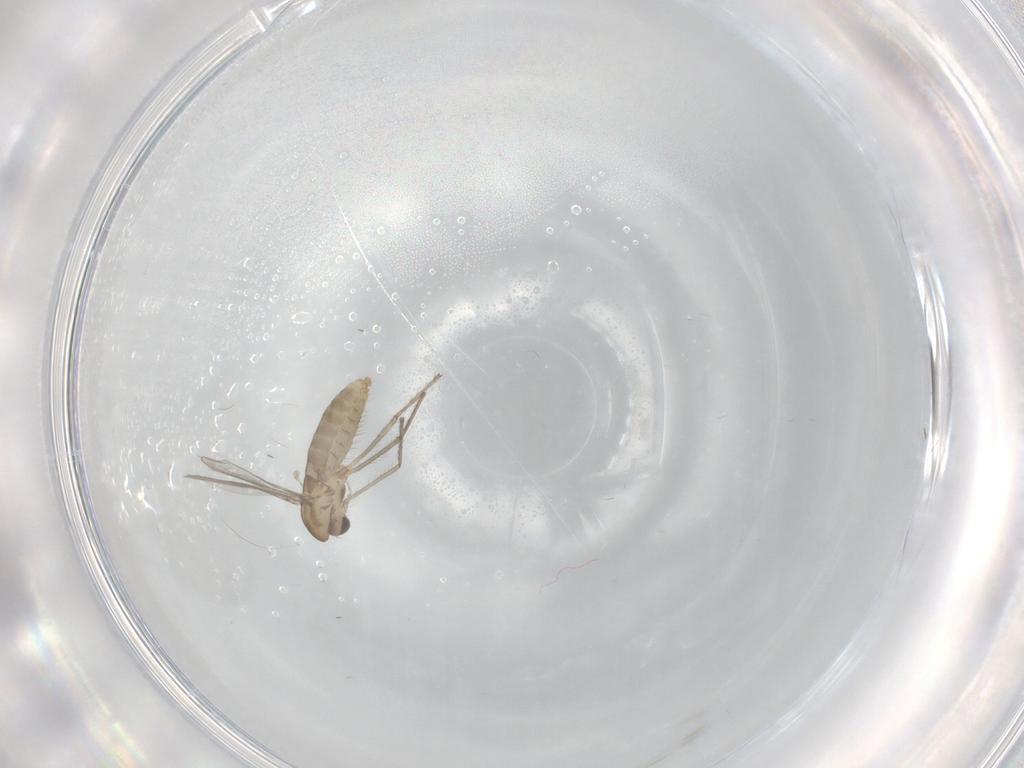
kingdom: Animalia
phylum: Arthropoda
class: Insecta
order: Diptera
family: Chironomidae
